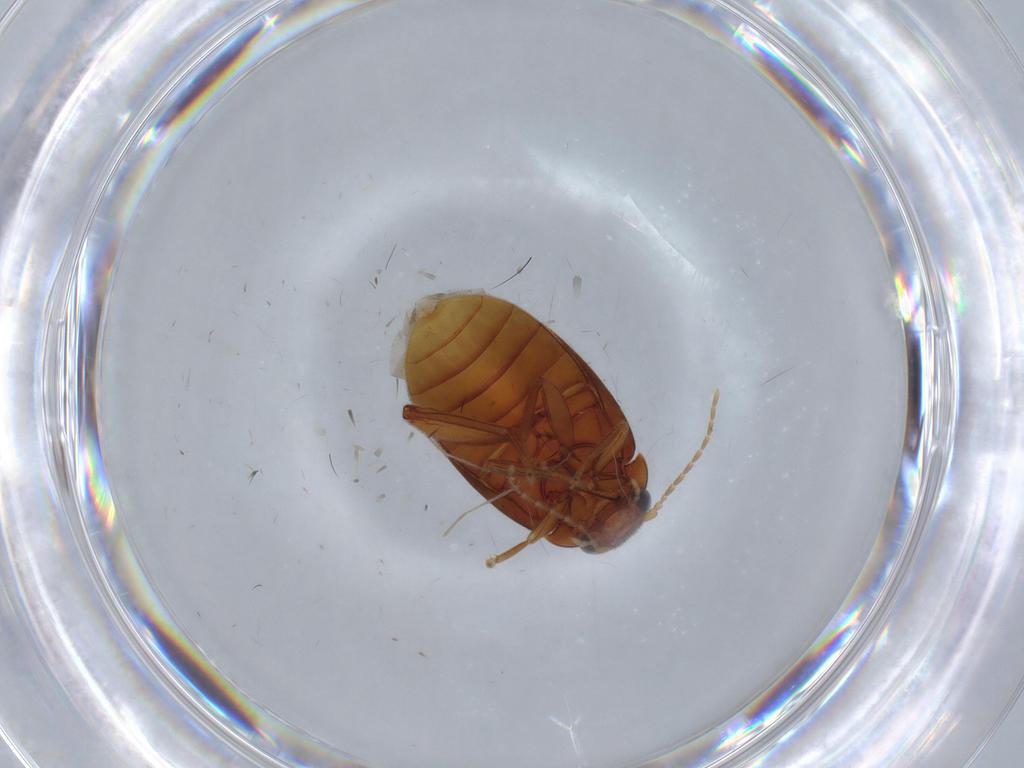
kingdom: Animalia
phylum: Arthropoda
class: Insecta
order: Coleoptera
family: Scirtidae
